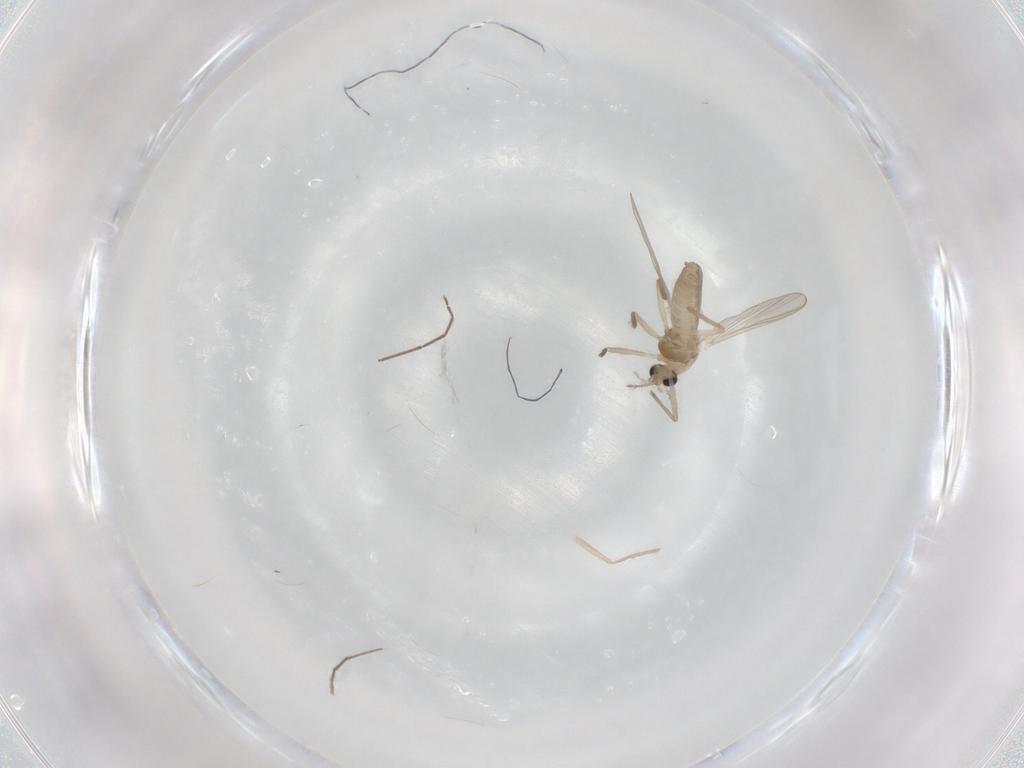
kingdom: Animalia
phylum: Arthropoda
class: Insecta
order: Diptera
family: Chironomidae
